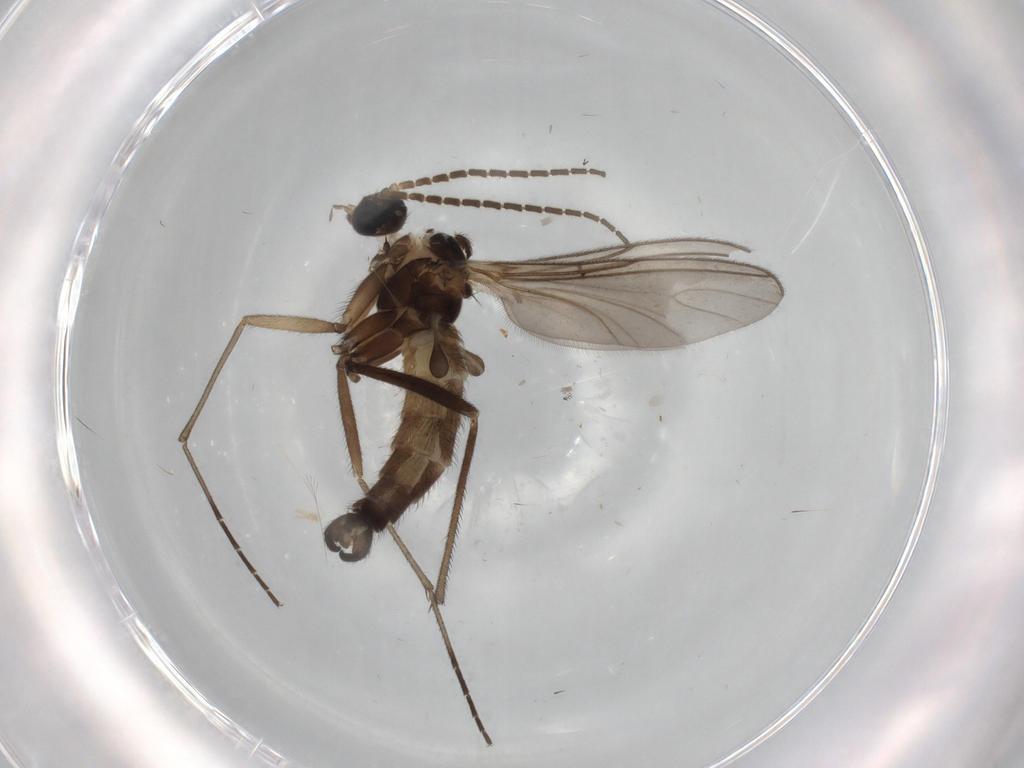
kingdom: Animalia
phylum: Arthropoda
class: Insecta
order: Diptera
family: Sciaridae
